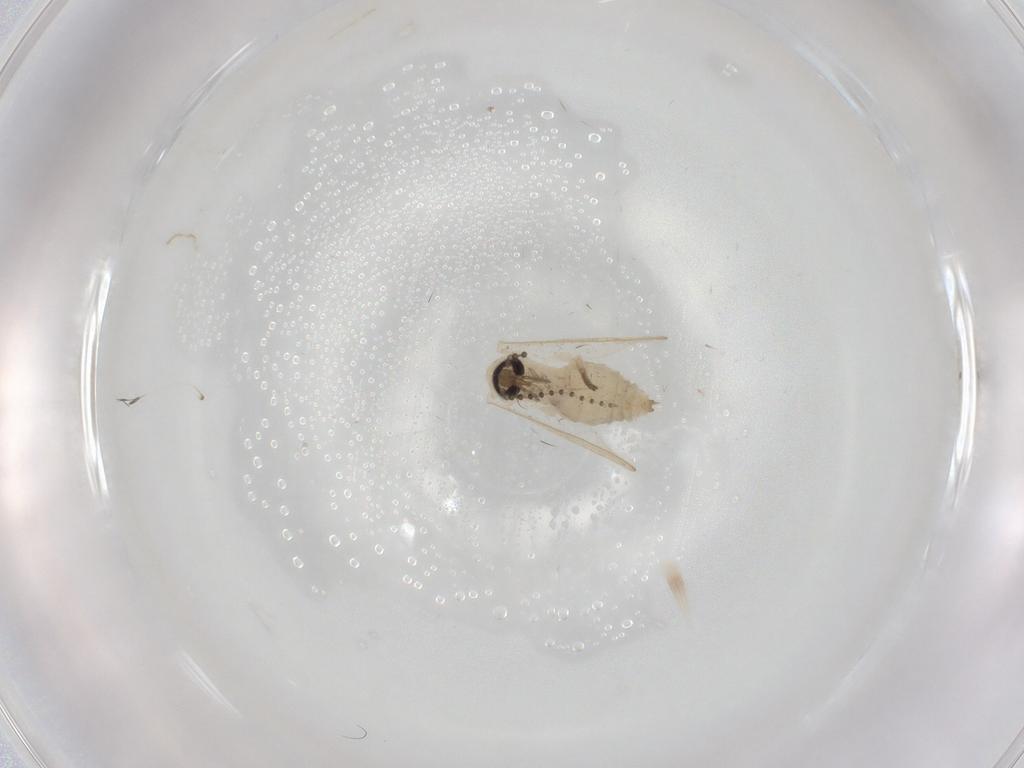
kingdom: Animalia
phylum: Arthropoda
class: Insecta
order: Diptera
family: Psychodidae
